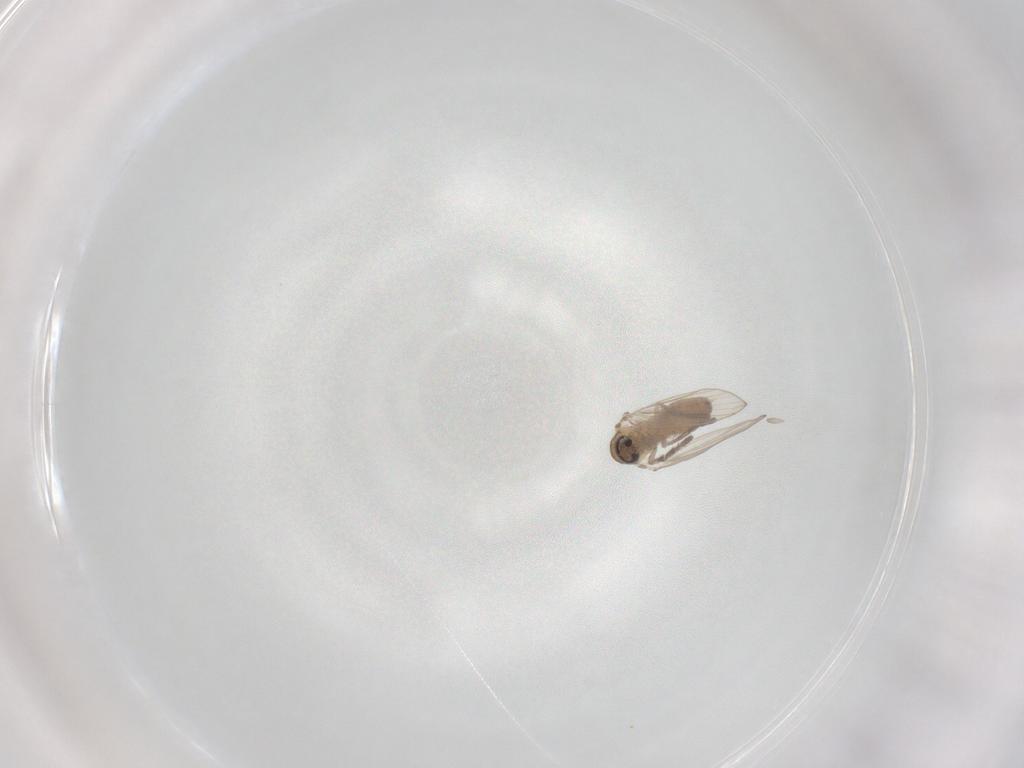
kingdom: Animalia
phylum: Arthropoda
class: Insecta
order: Diptera
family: Psychodidae
